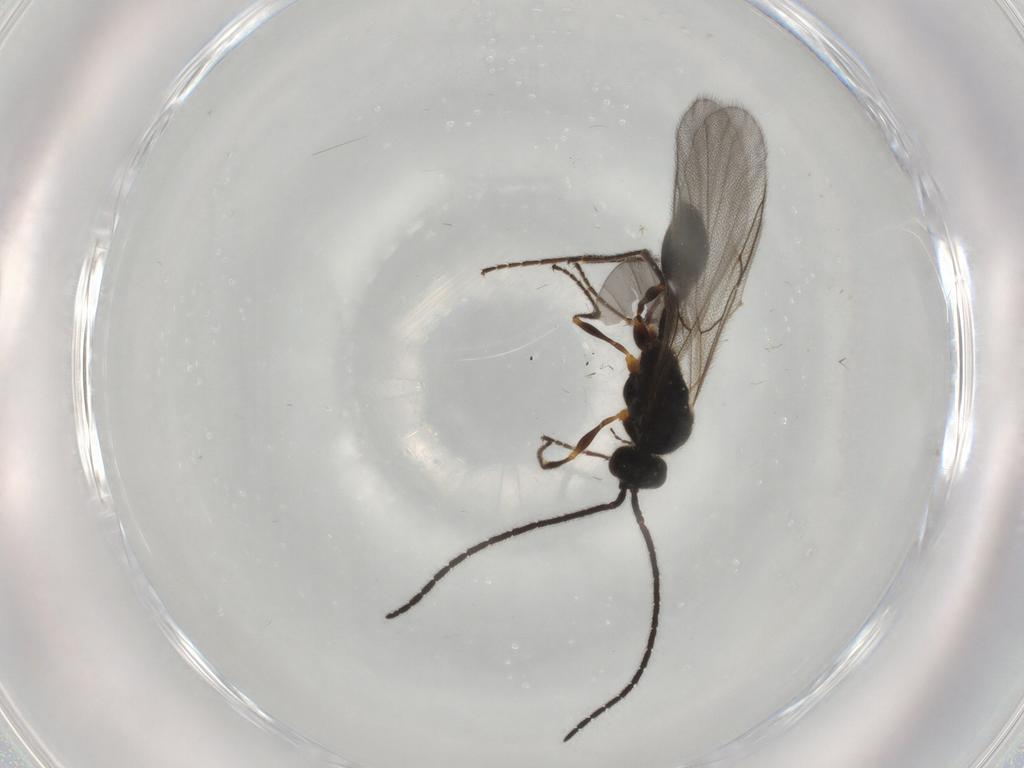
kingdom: Animalia
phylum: Arthropoda
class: Insecta
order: Hymenoptera
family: Diapriidae
